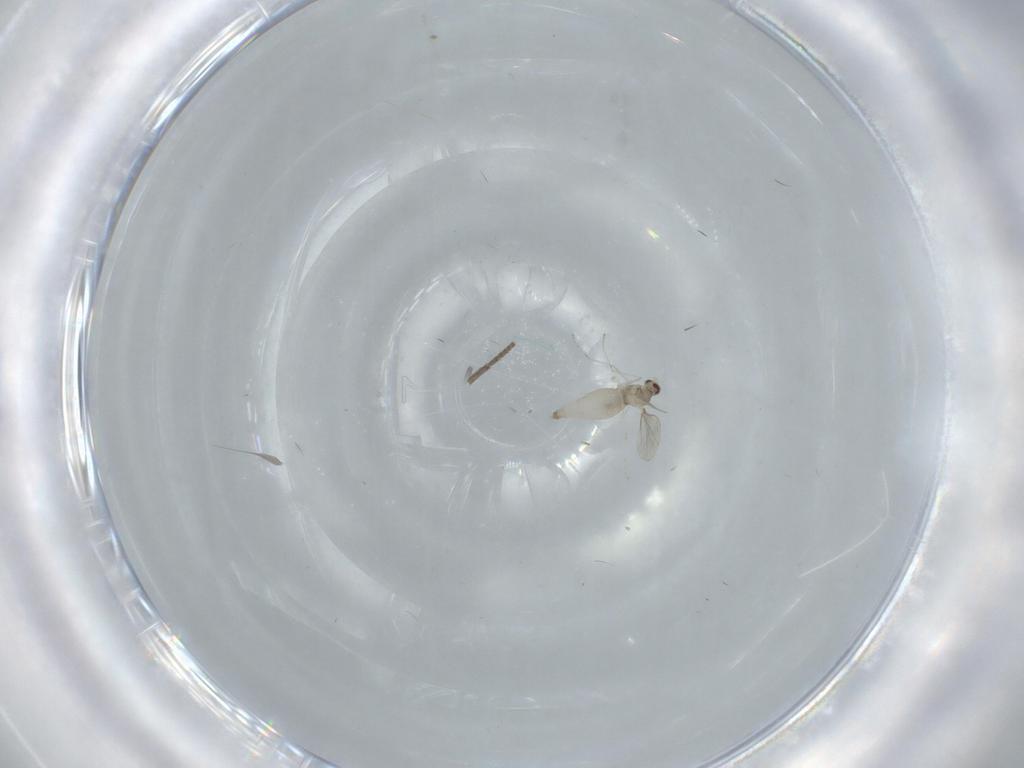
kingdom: Animalia
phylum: Arthropoda
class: Insecta
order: Diptera
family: Cecidomyiidae
